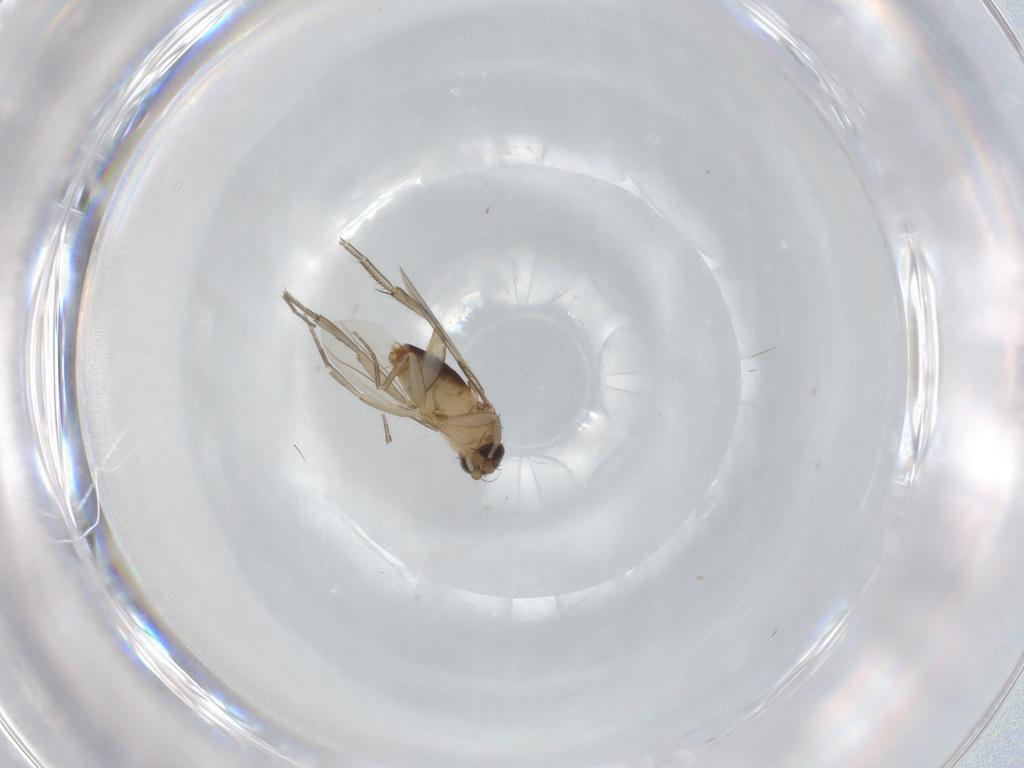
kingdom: Animalia
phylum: Arthropoda
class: Insecta
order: Diptera
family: Phoridae
